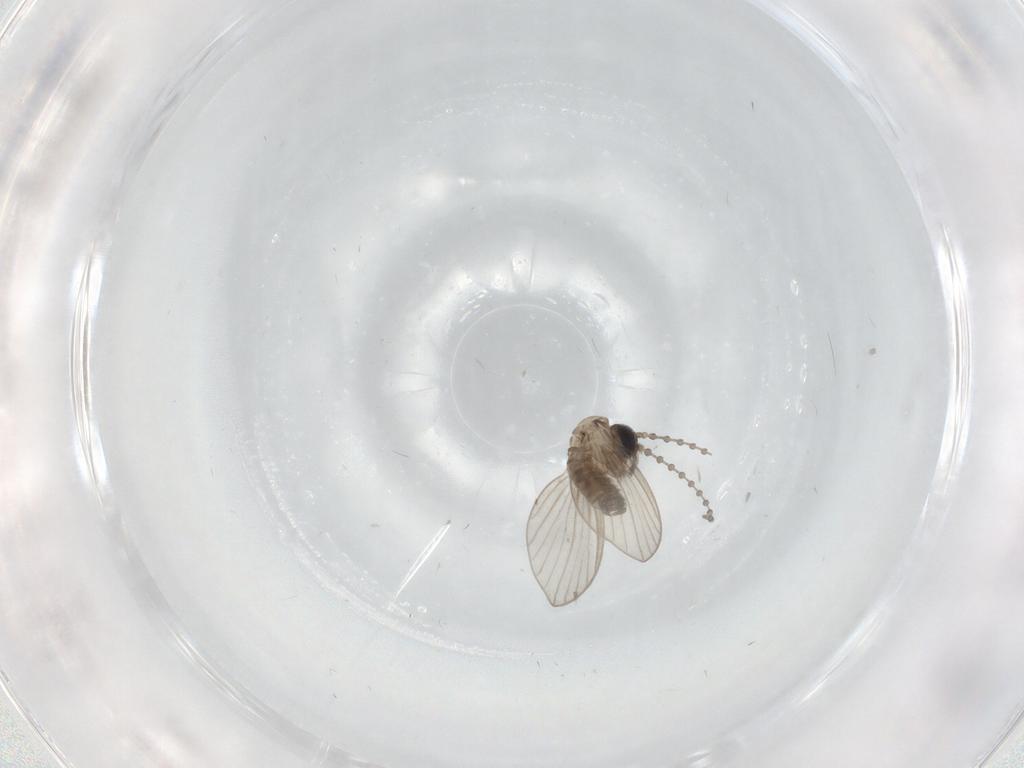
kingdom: Animalia
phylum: Arthropoda
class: Insecta
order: Diptera
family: Psychodidae
